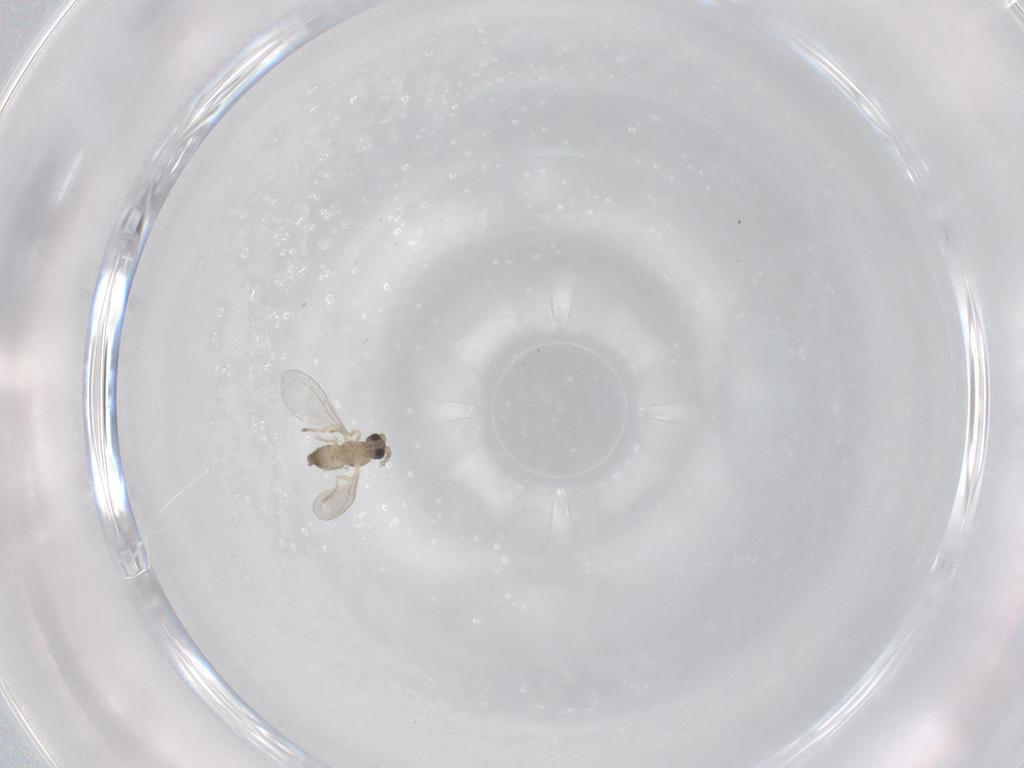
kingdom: Animalia
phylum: Arthropoda
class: Insecta
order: Diptera
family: Cecidomyiidae
